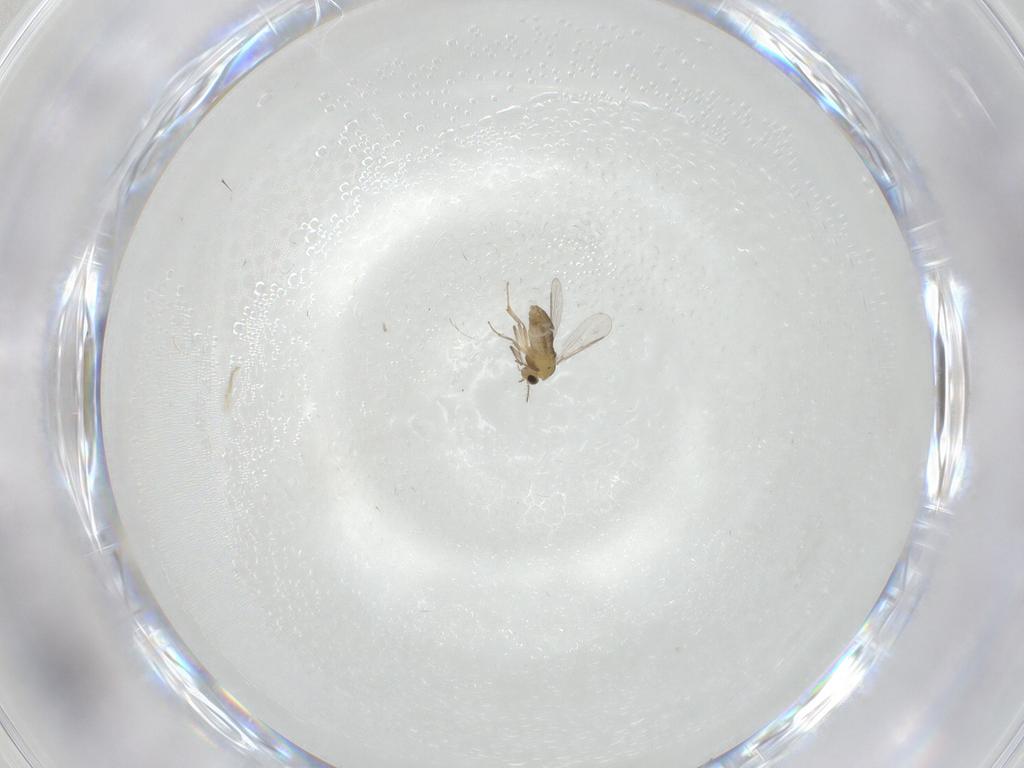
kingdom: Animalia
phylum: Arthropoda
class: Insecta
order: Diptera
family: Chironomidae
